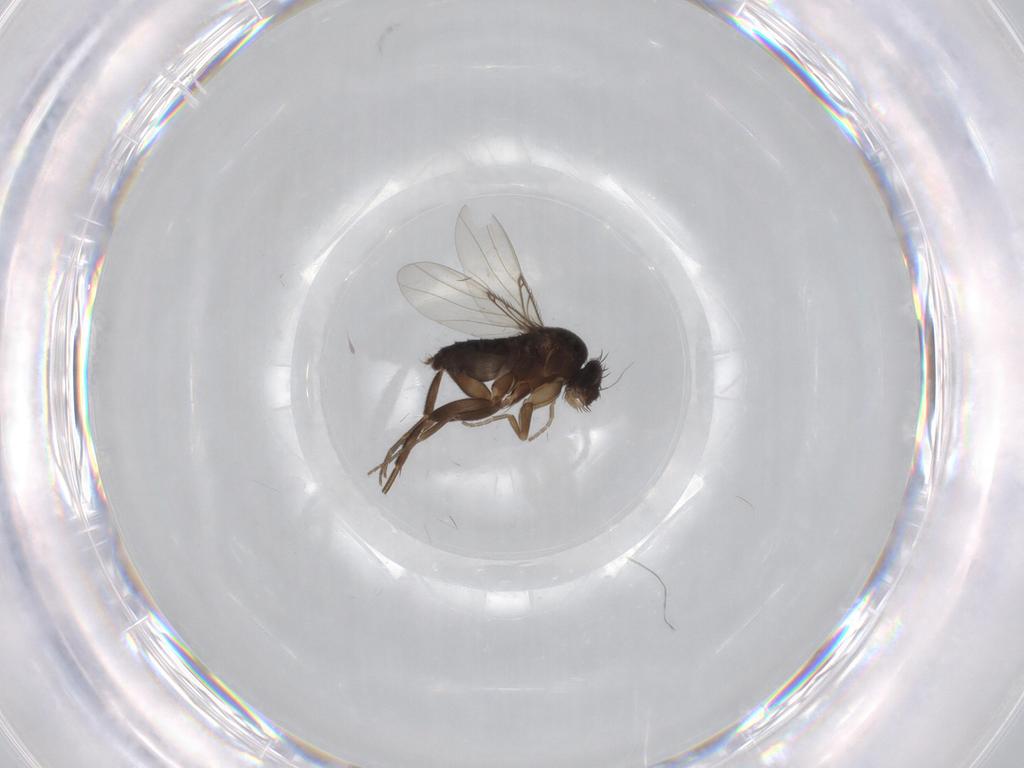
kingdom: Animalia
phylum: Arthropoda
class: Insecta
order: Diptera
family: Phoridae
